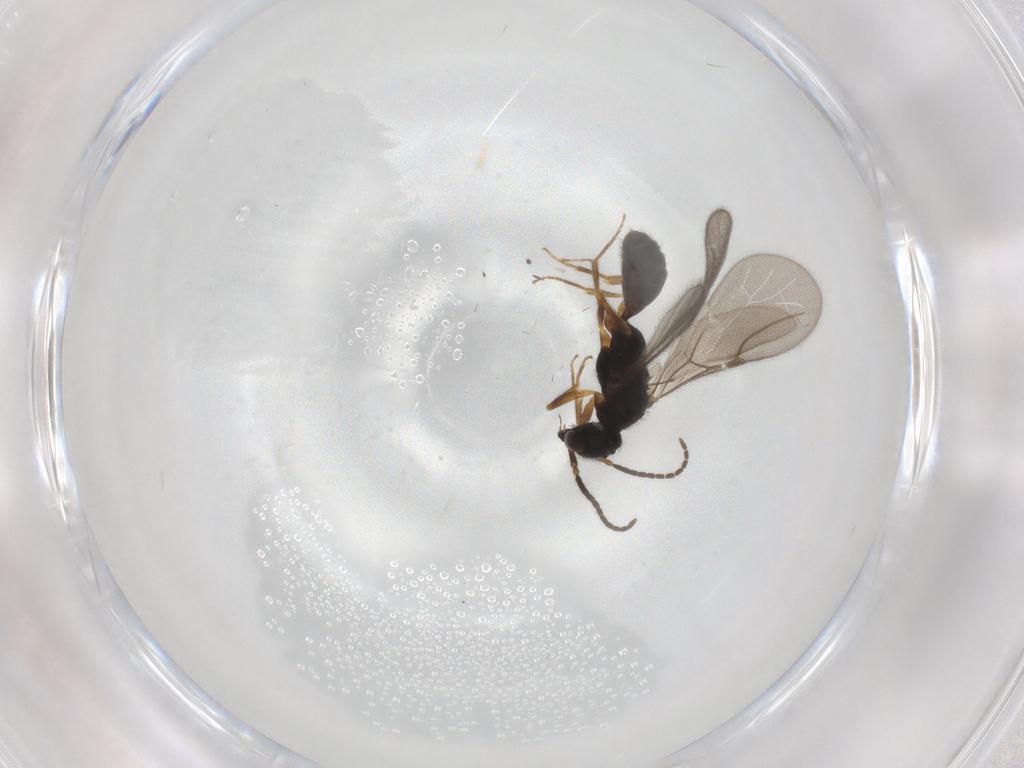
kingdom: Animalia
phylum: Arthropoda
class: Insecta
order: Hymenoptera
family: Bethylidae
